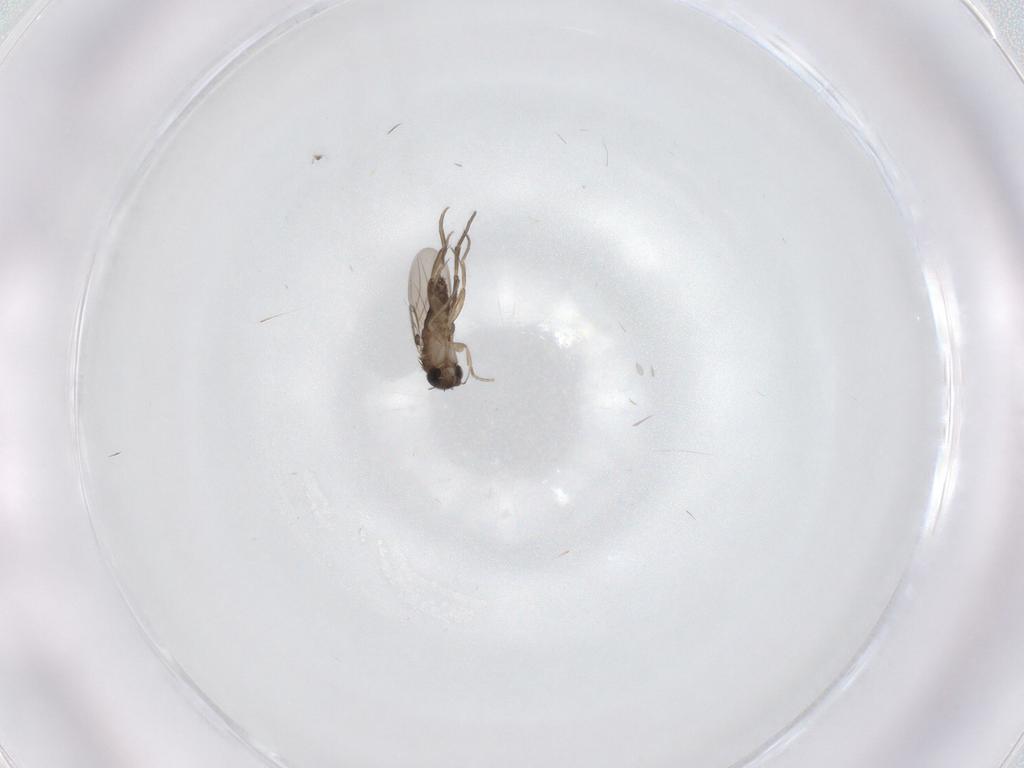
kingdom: Animalia
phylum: Arthropoda
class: Insecta
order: Diptera
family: Phoridae
